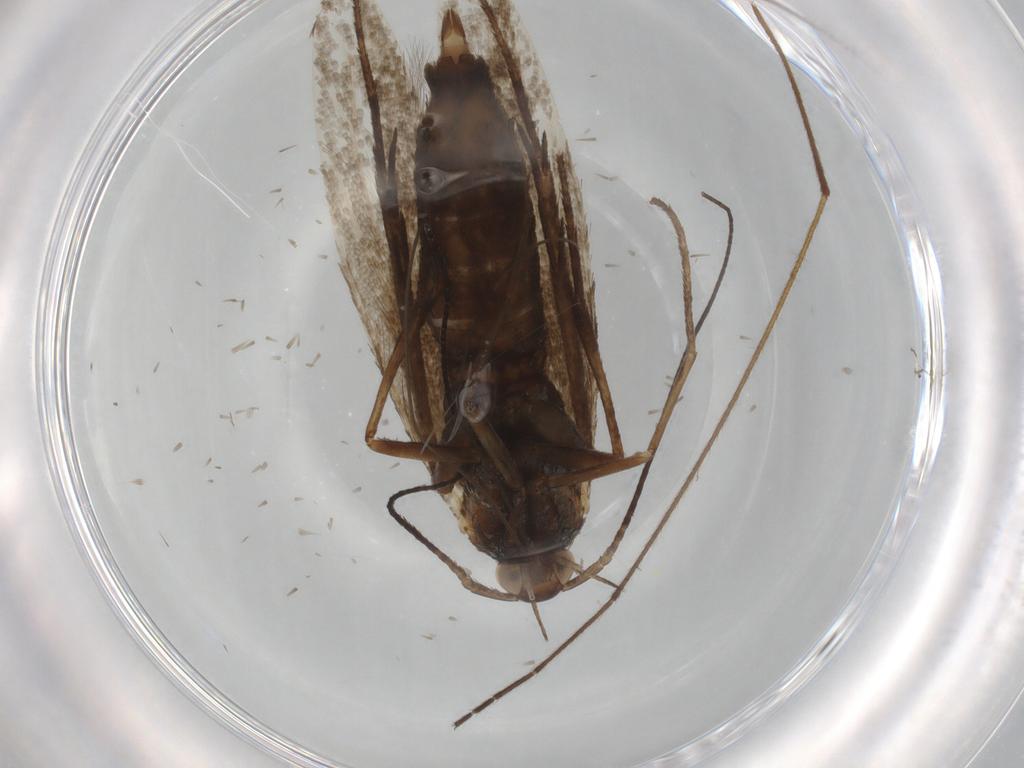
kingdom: Animalia
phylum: Arthropoda
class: Insecta
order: Lepidoptera
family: Coleophoridae
